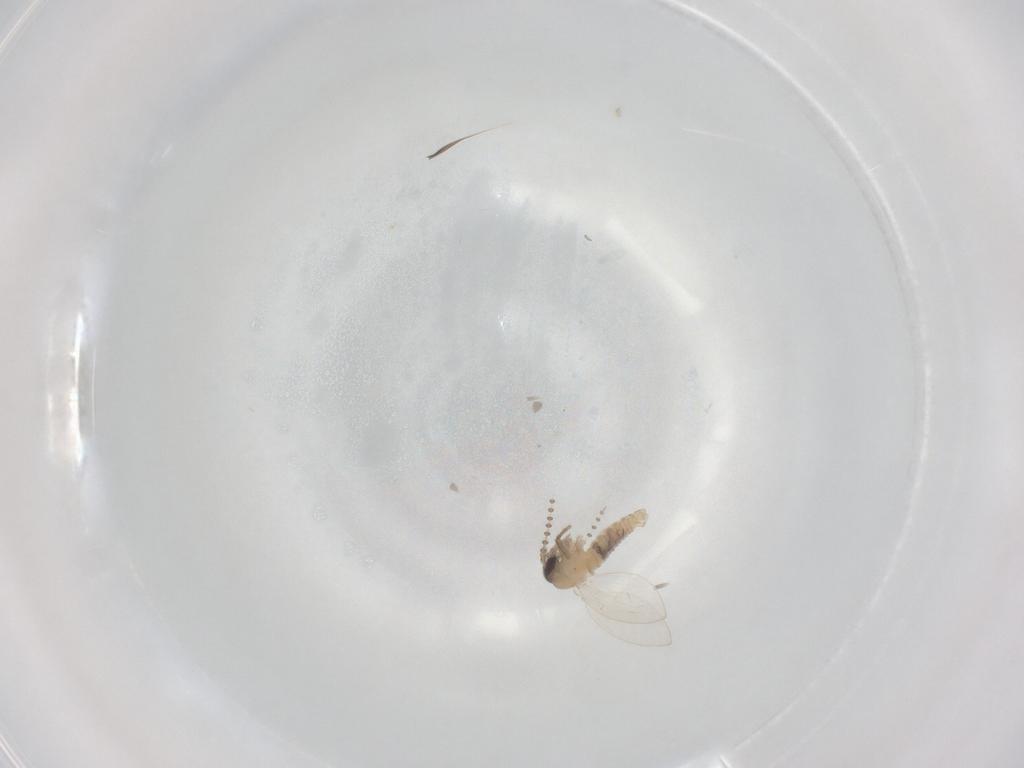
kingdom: Animalia
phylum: Arthropoda
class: Insecta
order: Diptera
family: Psychodidae
